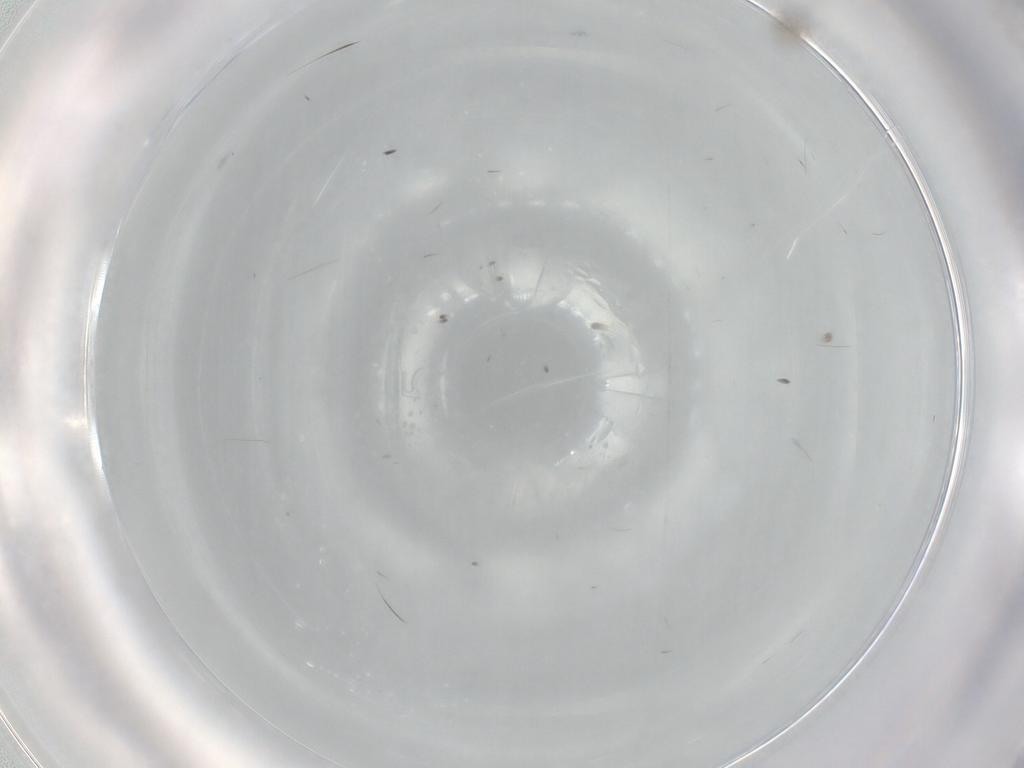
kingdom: Animalia
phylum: Arthropoda
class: Insecta
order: Diptera
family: Cecidomyiidae
